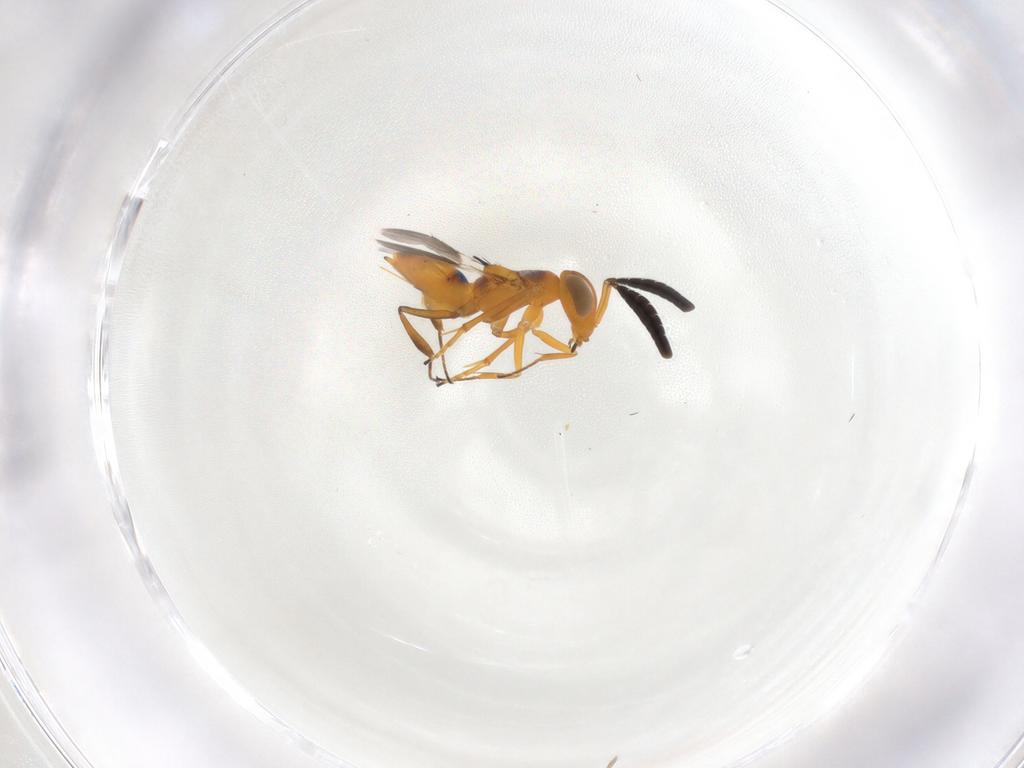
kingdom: Animalia
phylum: Arthropoda
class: Insecta
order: Hymenoptera
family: Encyrtidae
